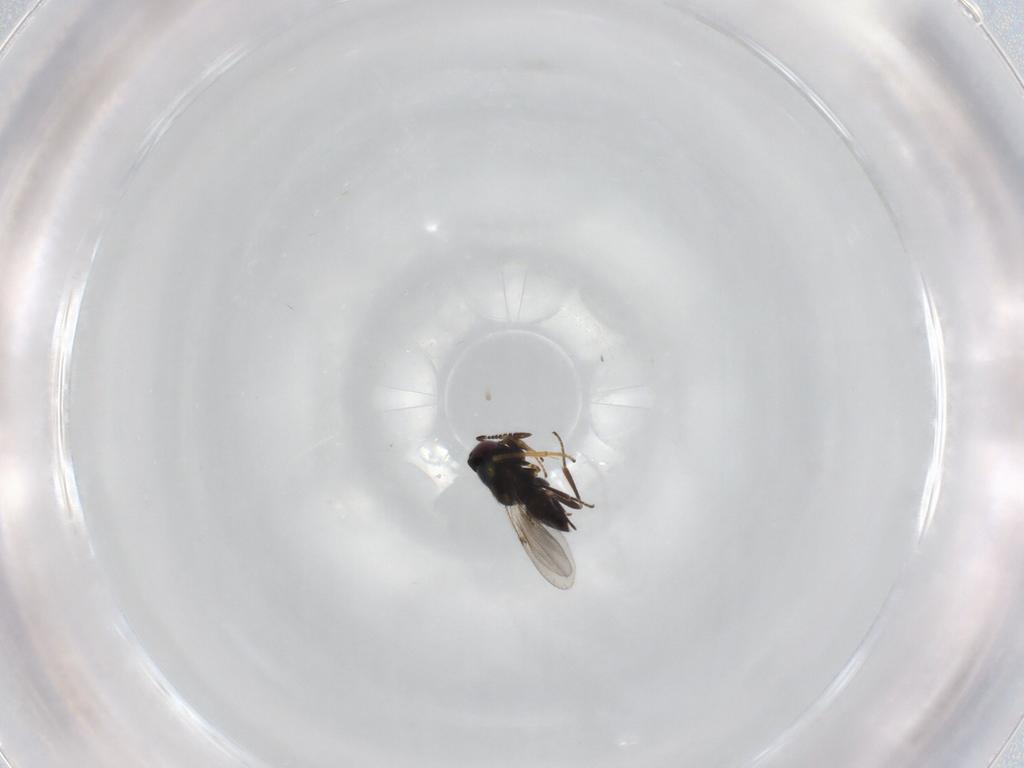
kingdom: Animalia
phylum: Arthropoda
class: Insecta
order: Hymenoptera
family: Encyrtidae
